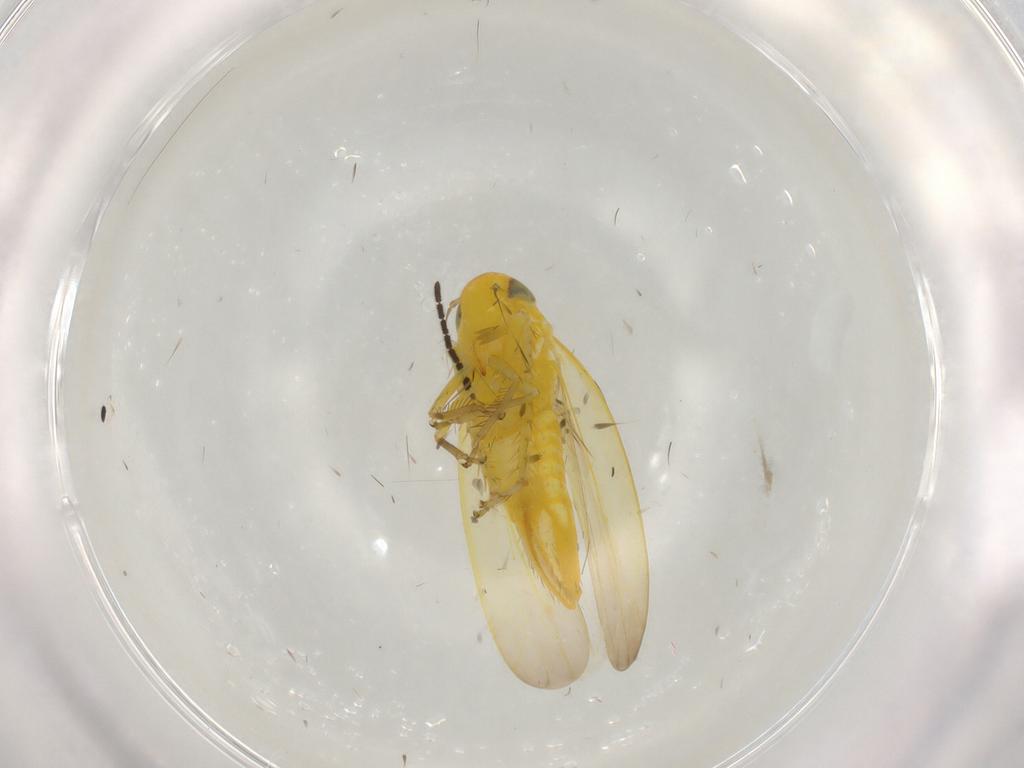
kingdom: Animalia
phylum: Arthropoda
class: Insecta
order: Hemiptera
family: Cicadellidae
